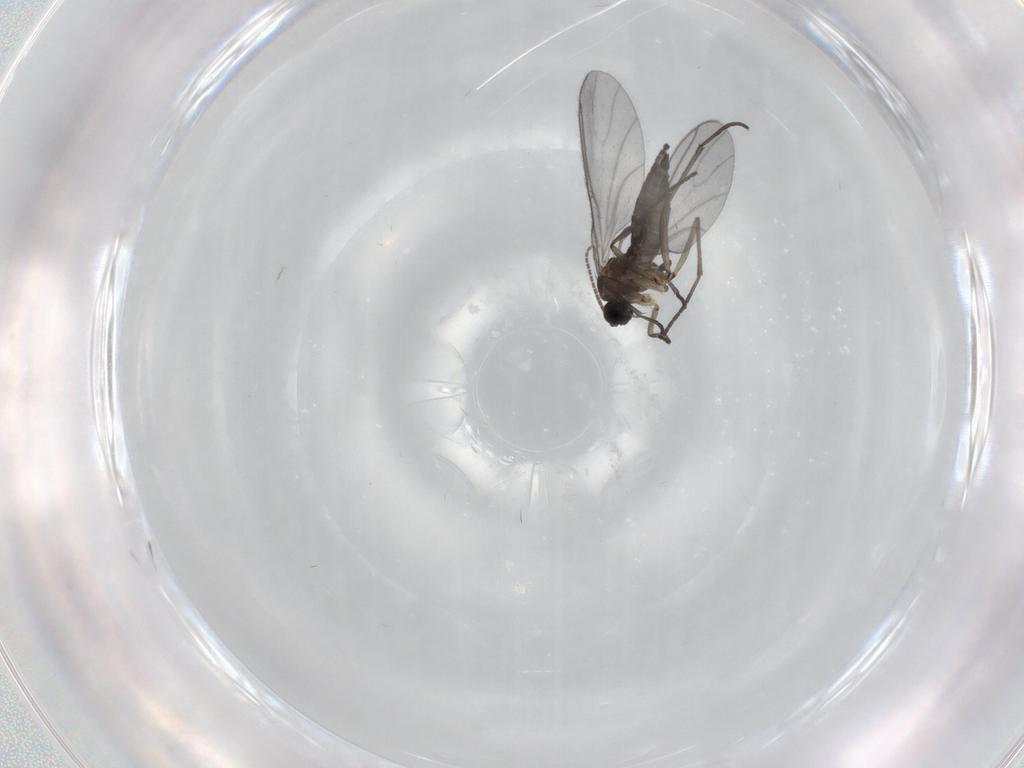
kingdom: Animalia
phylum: Arthropoda
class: Insecta
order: Diptera
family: Sciaridae
